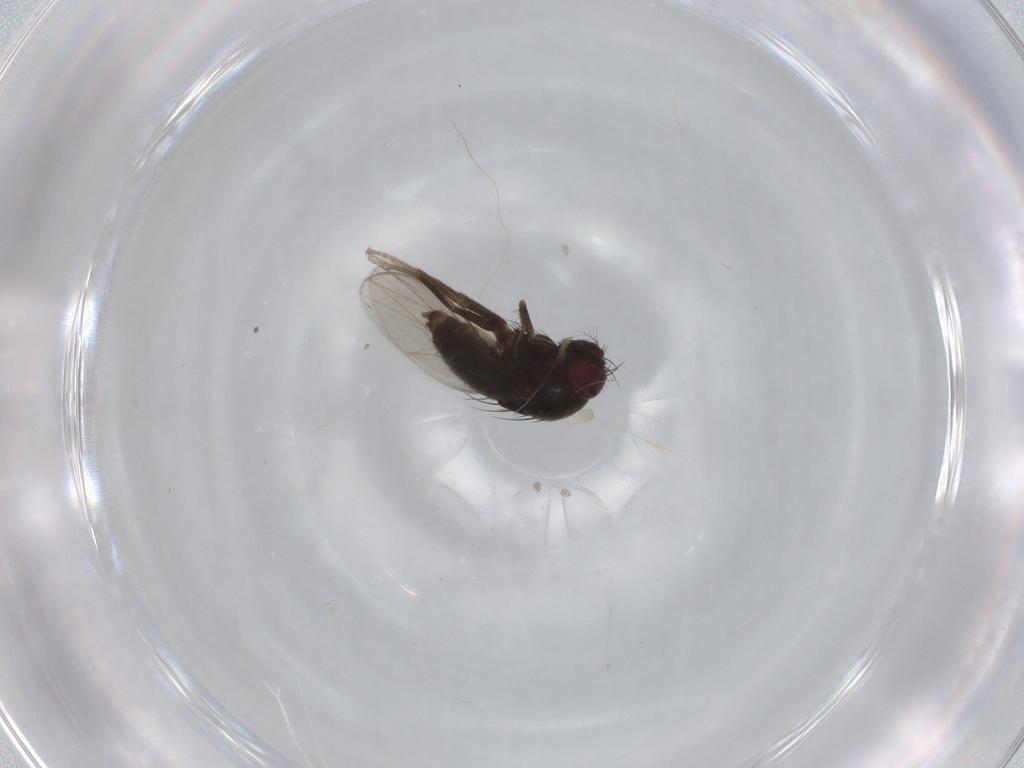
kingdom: Animalia
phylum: Arthropoda
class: Insecta
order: Diptera
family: Drosophilidae
